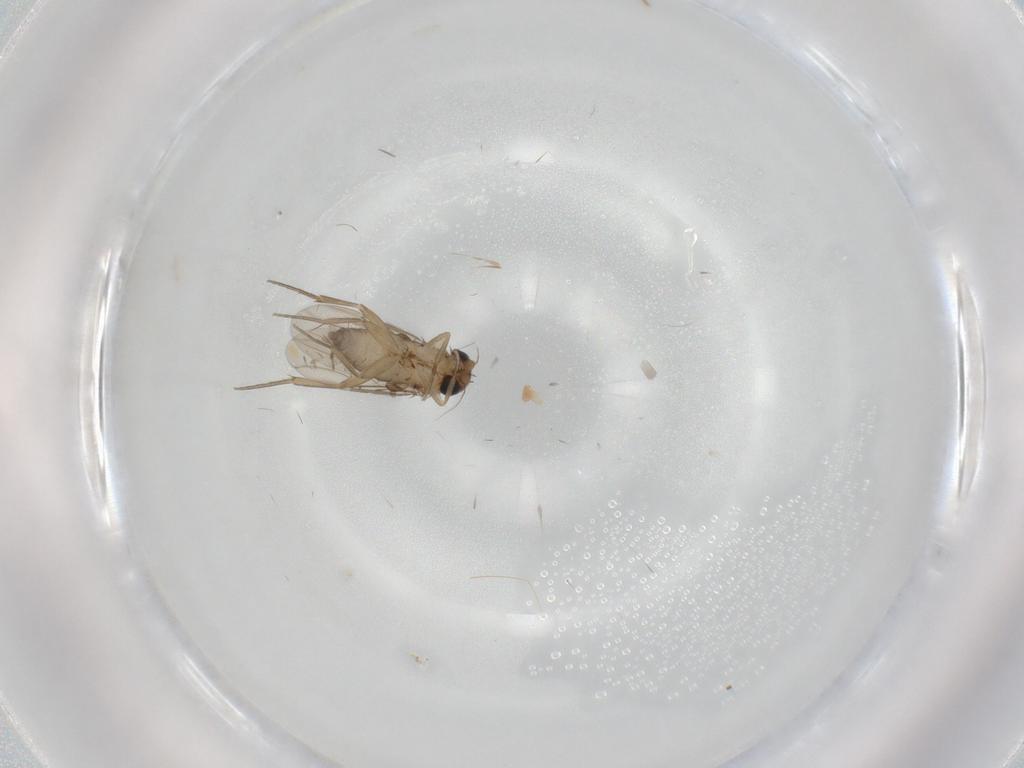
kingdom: Animalia
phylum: Arthropoda
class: Insecta
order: Diptera
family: Phoridae
